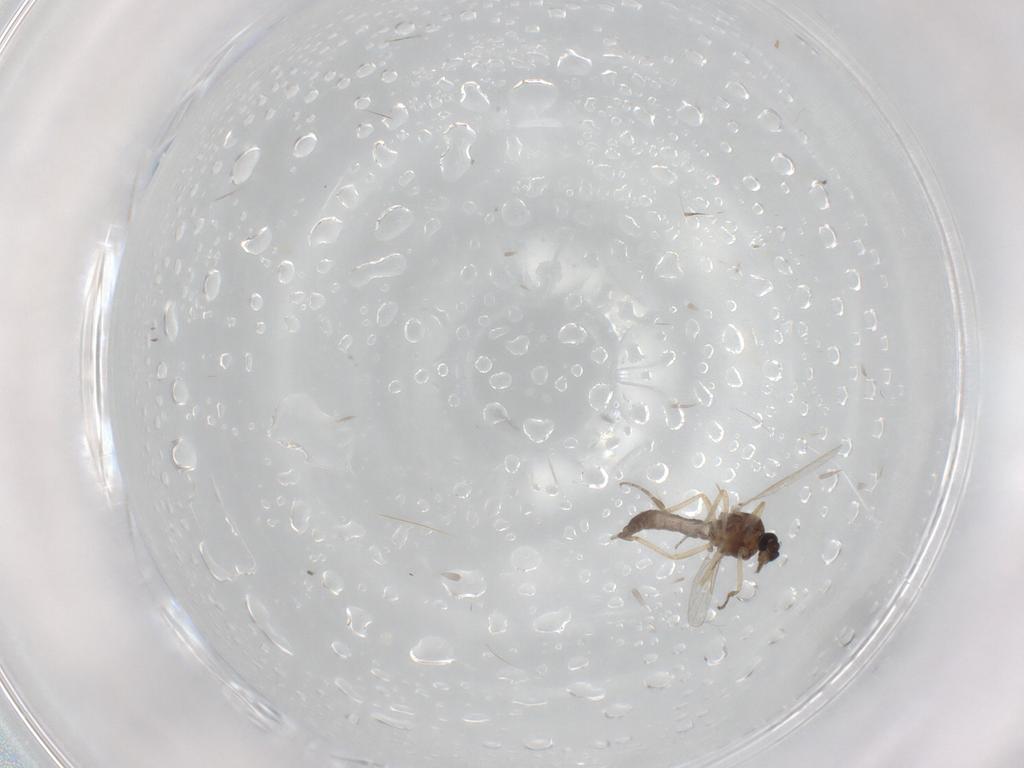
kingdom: Animalia
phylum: Arthropoda
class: Insecta
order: Diptera
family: Ceratopogonidae
